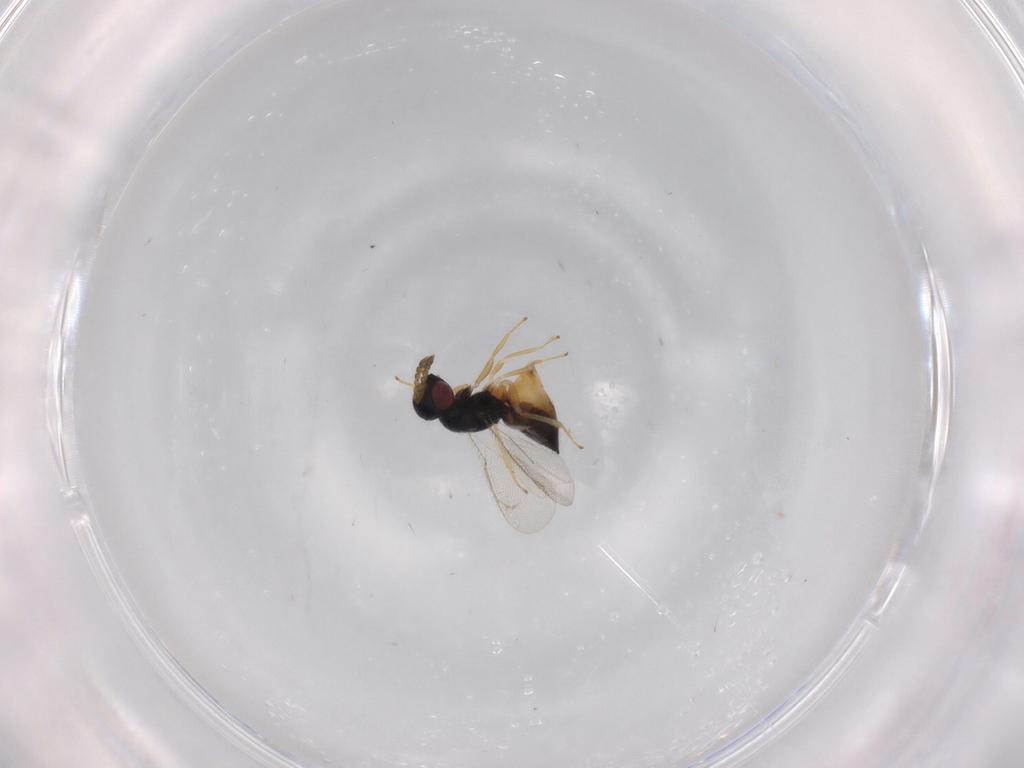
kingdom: Animalia
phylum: Arthropoda
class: Insecta
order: Hymenoptera
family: Eulophidae
